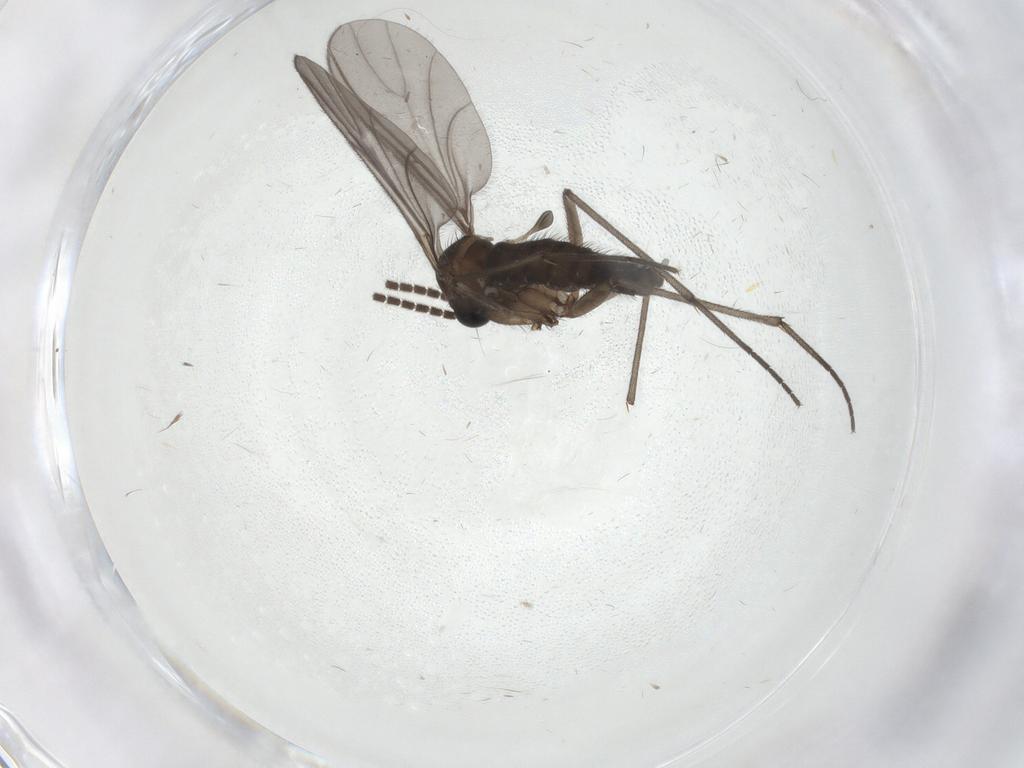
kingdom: Animalia
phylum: Arthropoda
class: Insecta
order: Diptera
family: Sciaridae
